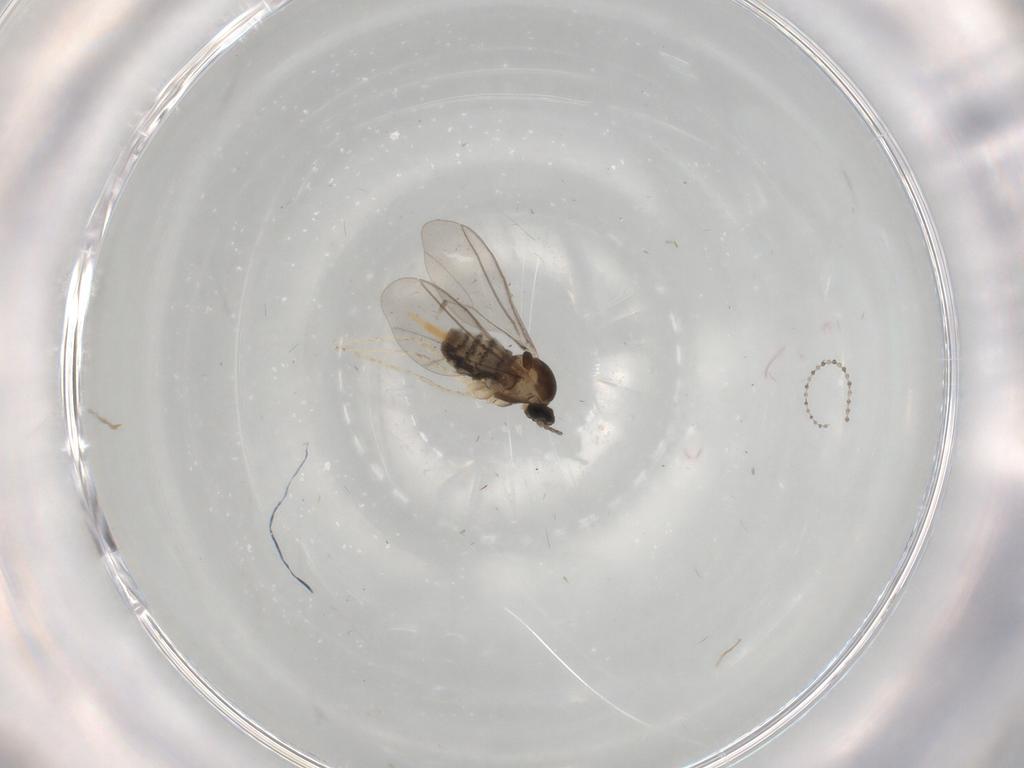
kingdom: Animalia
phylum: Arthropoda
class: Insecta
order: Diptera
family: Cecidomyiidae
